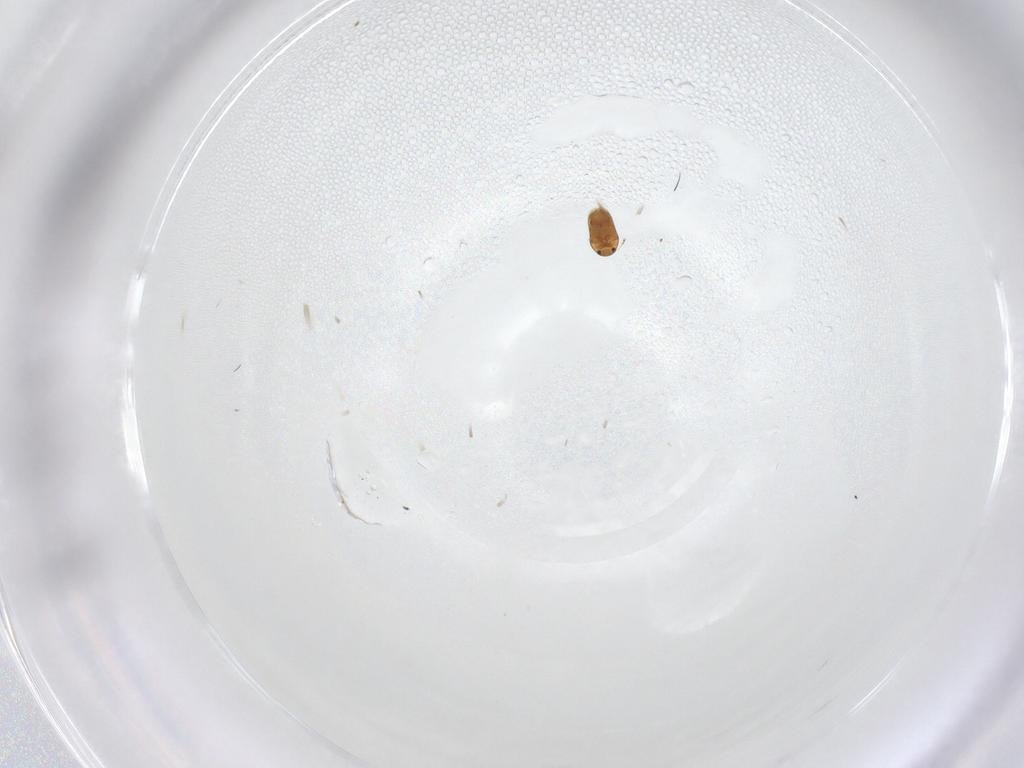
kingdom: Animalia
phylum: Arthropoda
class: Insecta
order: Coleoptera
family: Ptiliidae
